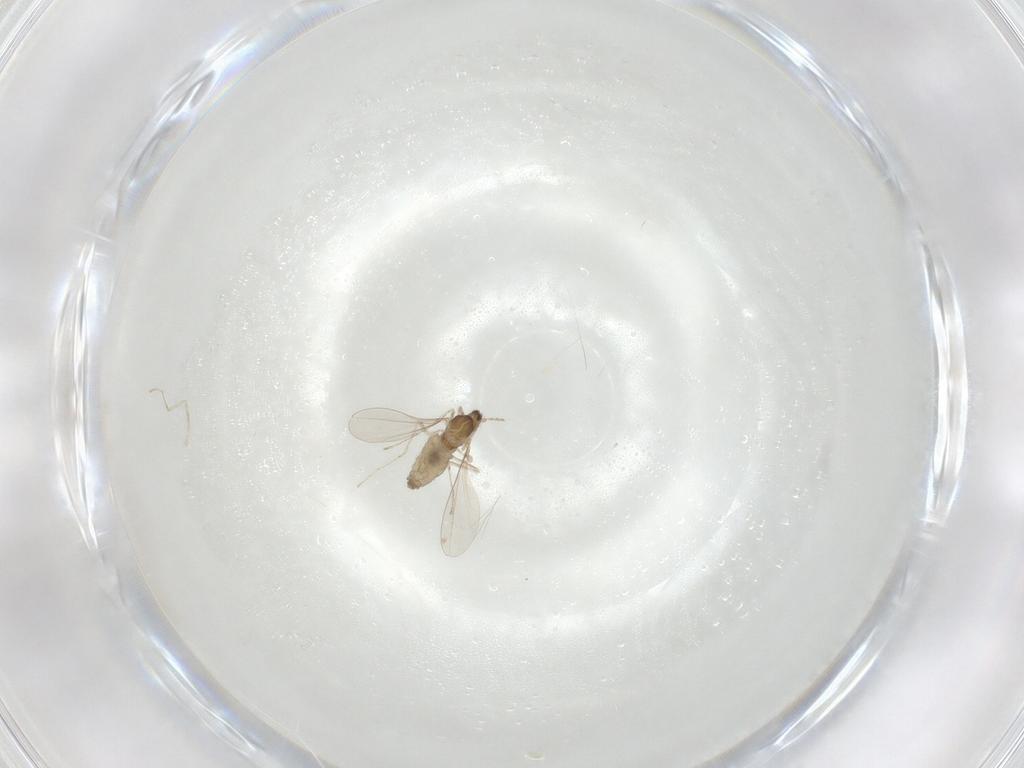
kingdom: Animalia
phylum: Arthropoda
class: Insecta
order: Diptera
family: Cecidomyiidae
